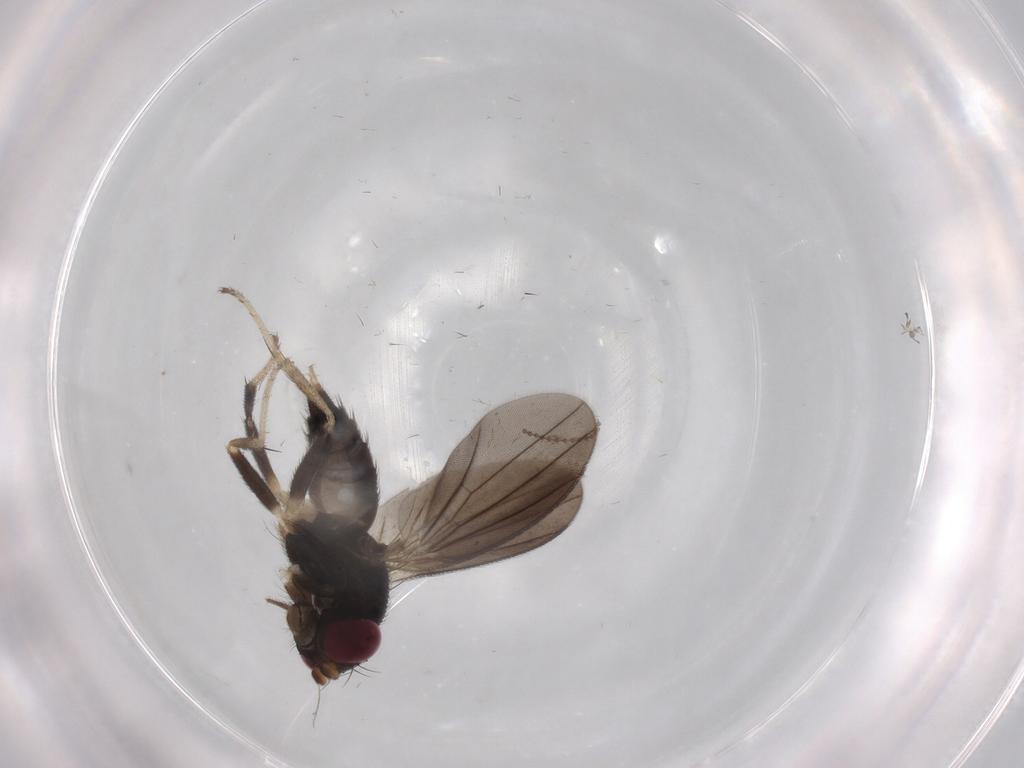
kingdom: Animalia
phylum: Arthropoda
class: Insecta
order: Diptera
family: Clusiidae
